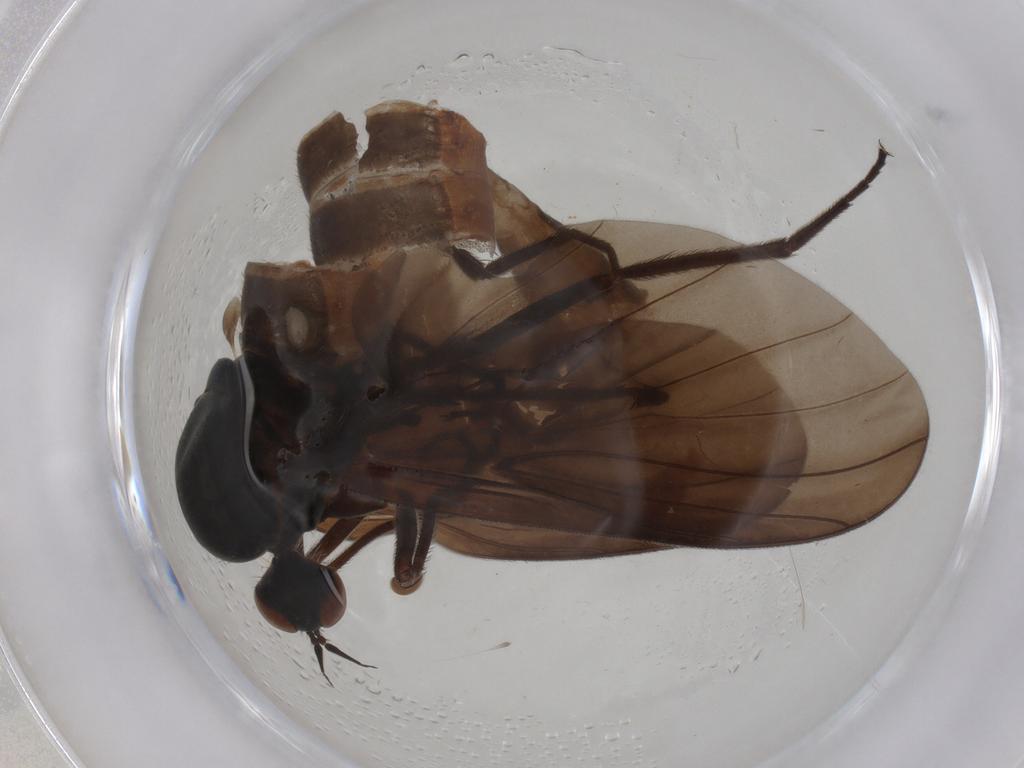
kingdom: Animalia
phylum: Arthropoda
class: Insecta
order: Diptera
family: Empididae
